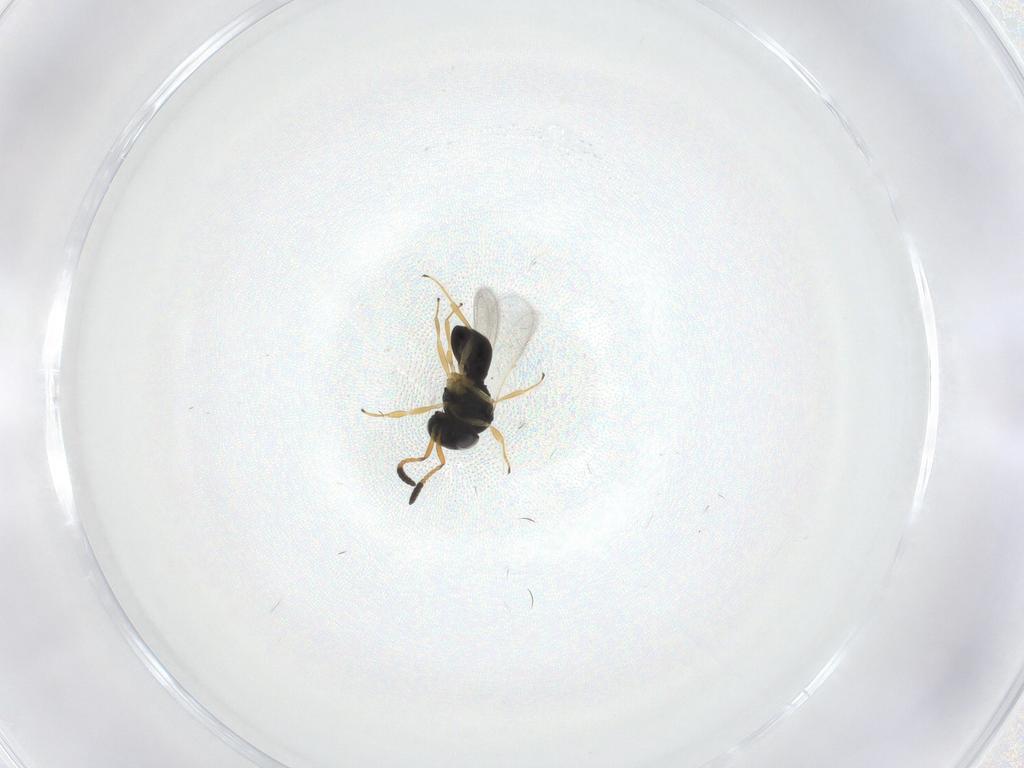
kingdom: Animalia
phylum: Arthropoda
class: Insecta
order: Hymenoptera
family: Scelionidae
